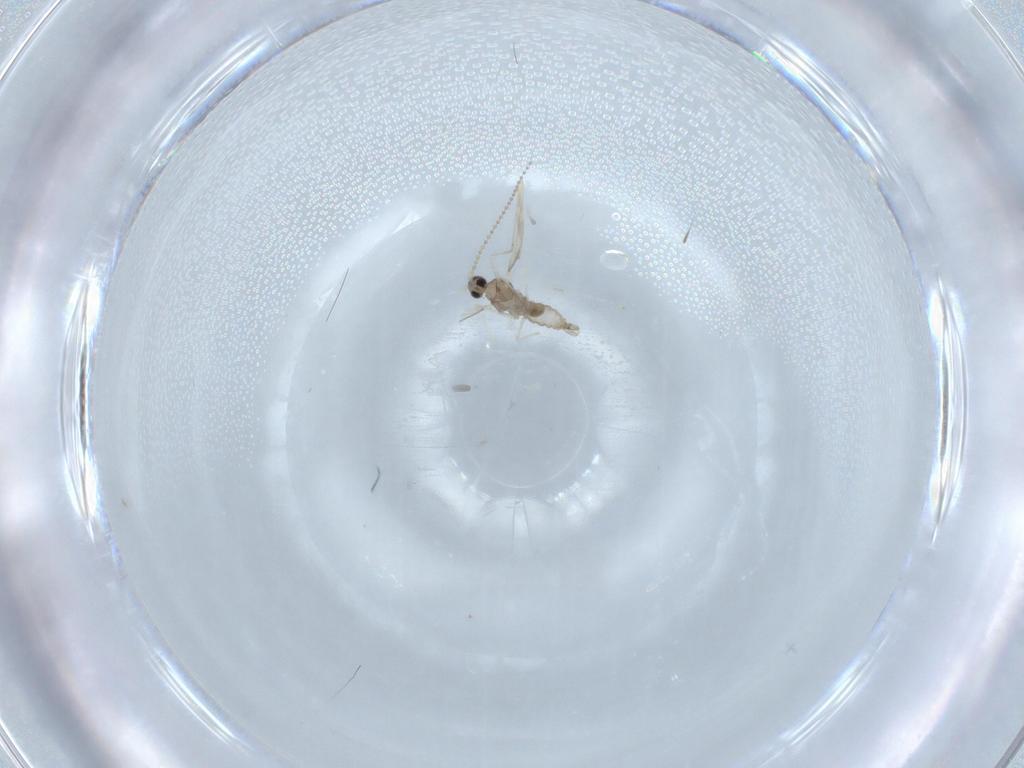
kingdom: Animalia
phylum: Arthropoda
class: Insecta
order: Diptera
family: Cecidomyiidae
